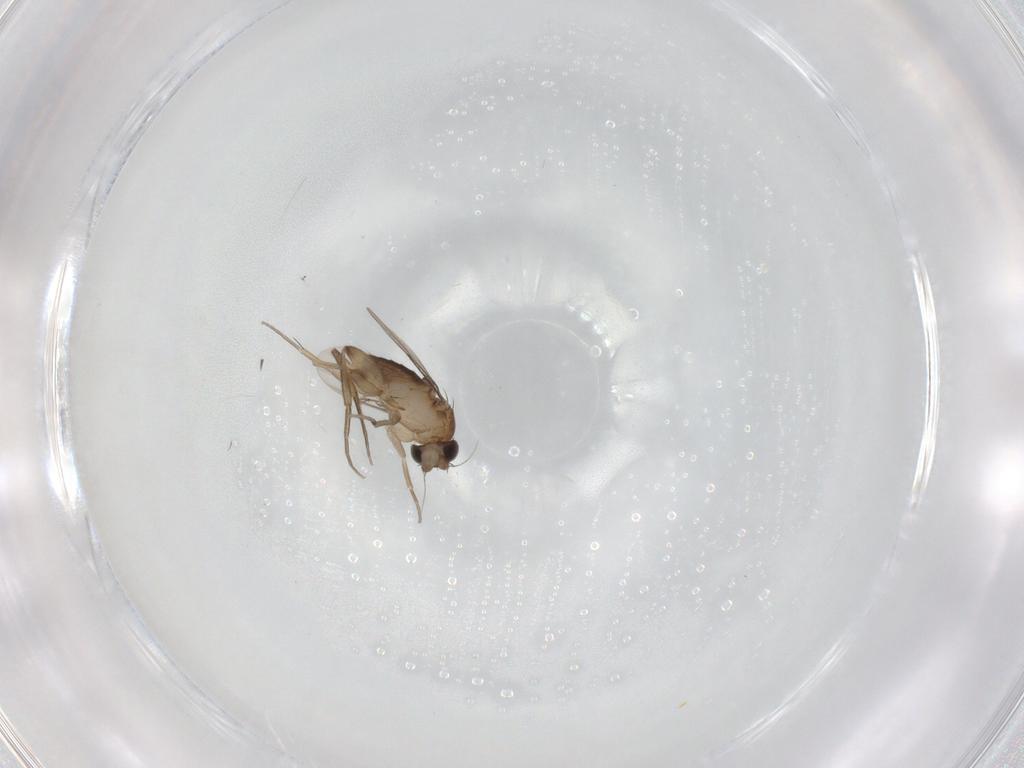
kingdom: Animalia
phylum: Arthropoda
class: Insecta
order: Diptera
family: Phoridae
